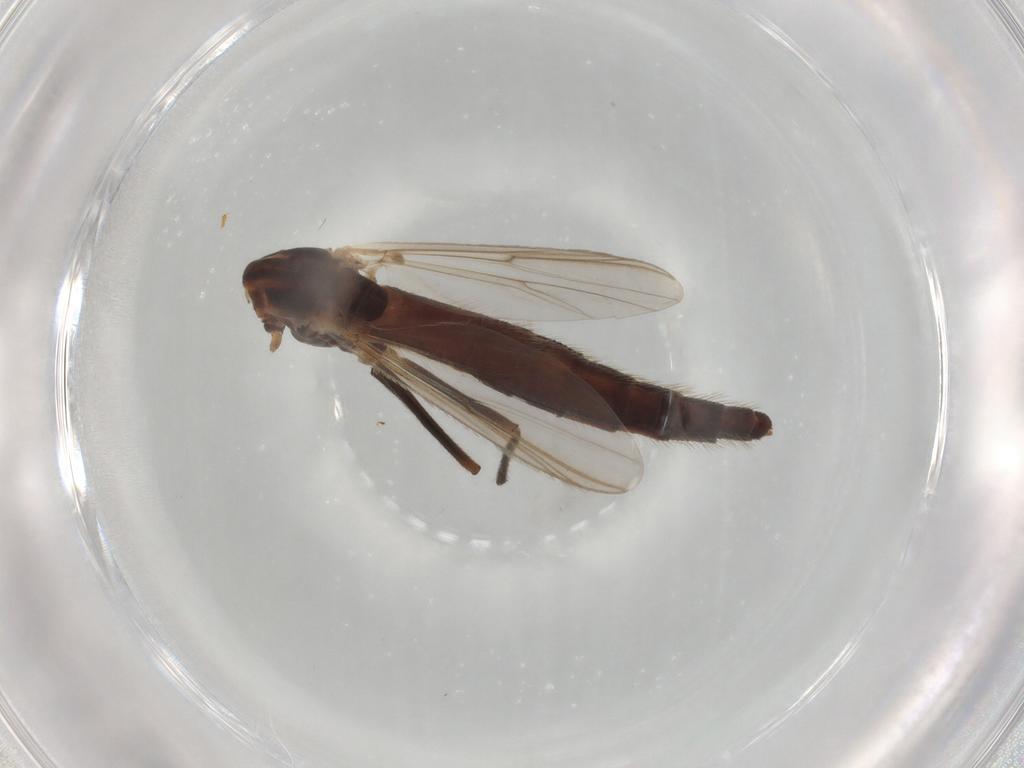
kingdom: Animalia
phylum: Arthropoda
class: Insecta
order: Diptera
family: Chironomidae
